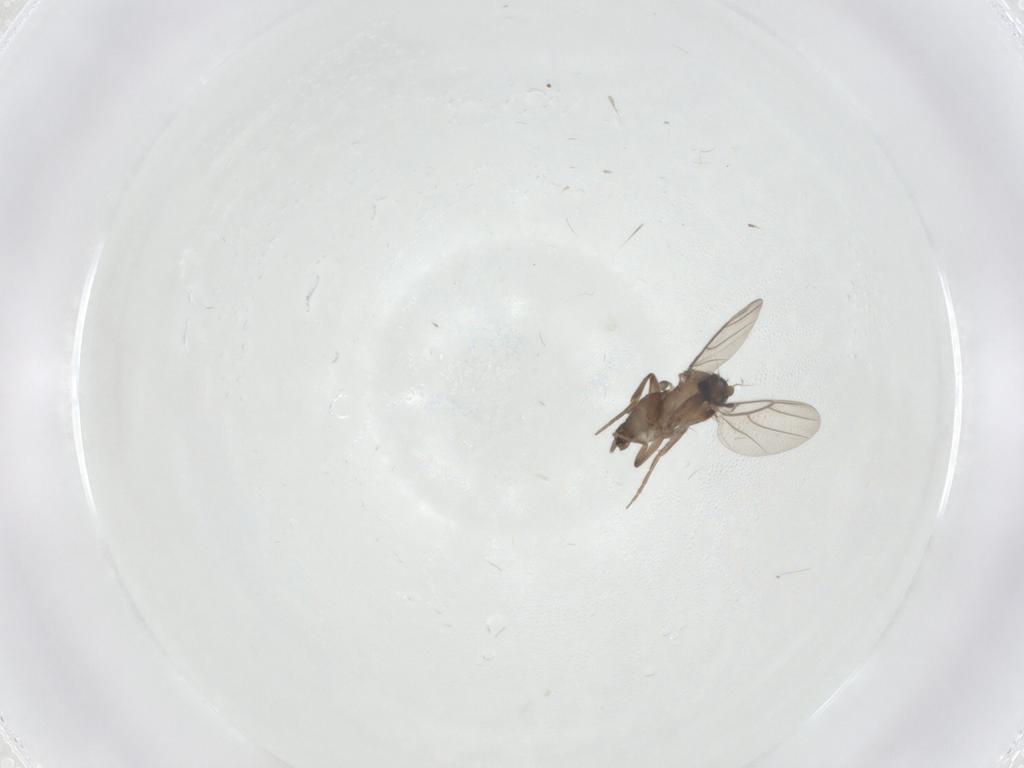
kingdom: Animalia
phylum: Arthropoda
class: Insecta
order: Diptera
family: Phoridae
